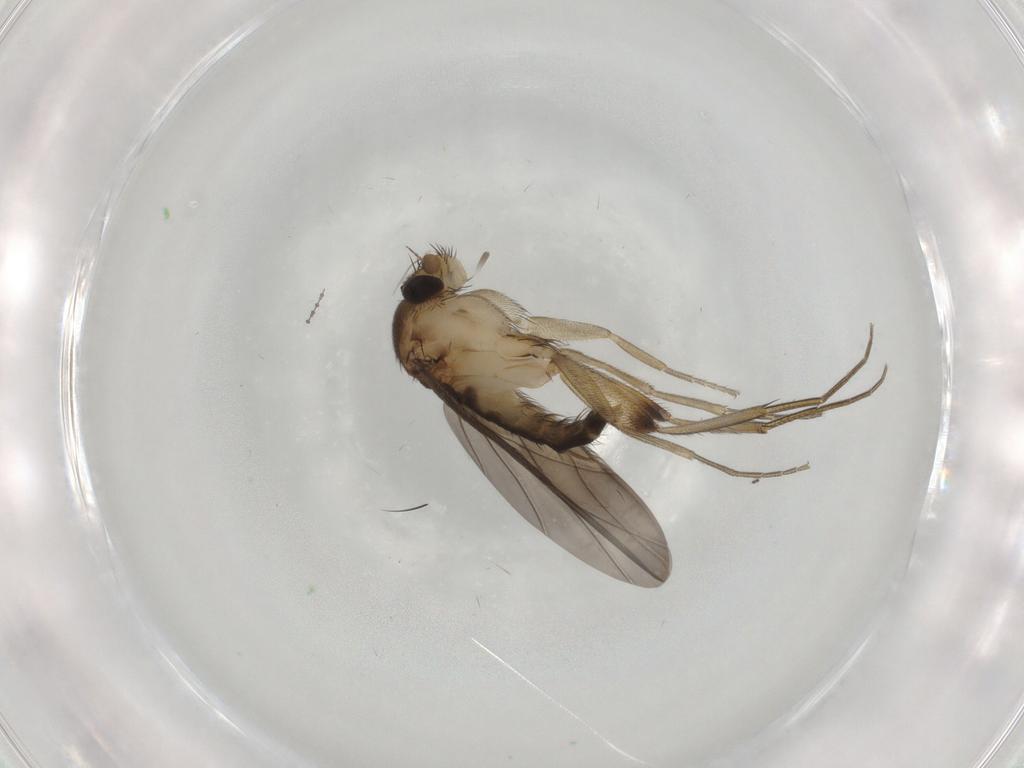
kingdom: Animalia
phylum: Arthropoda
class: Insecta
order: Diptera
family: Phoridae
